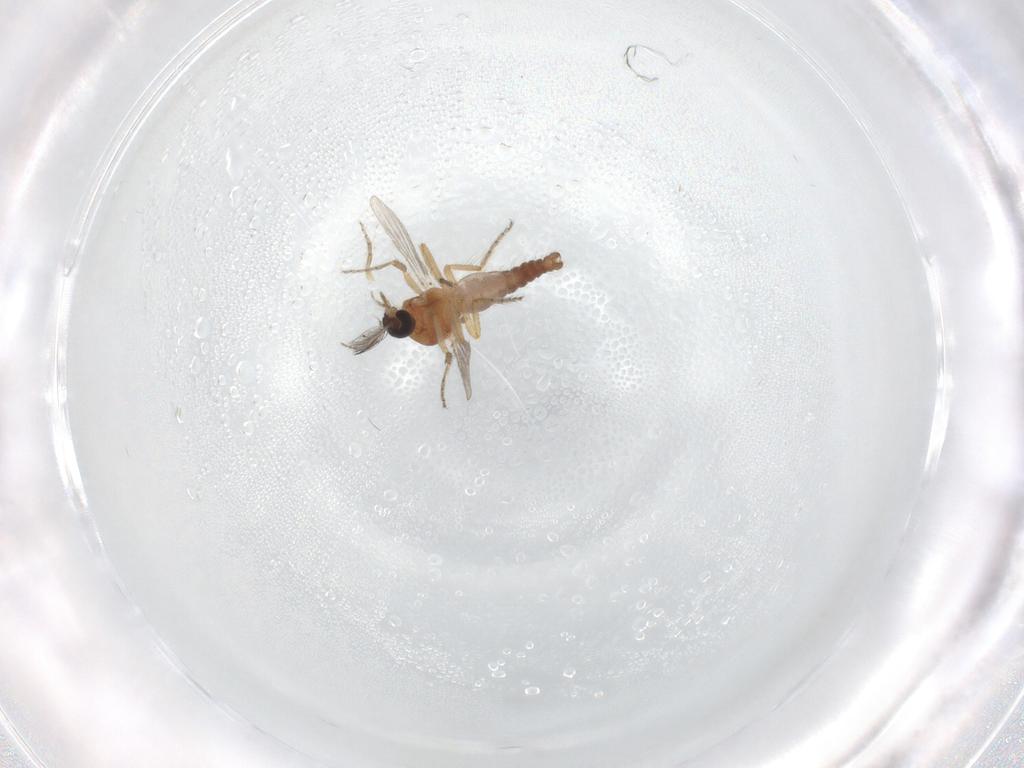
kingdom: Animalia
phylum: Arthropoda
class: Insecta
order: Diptera
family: Ceratopogonidae
